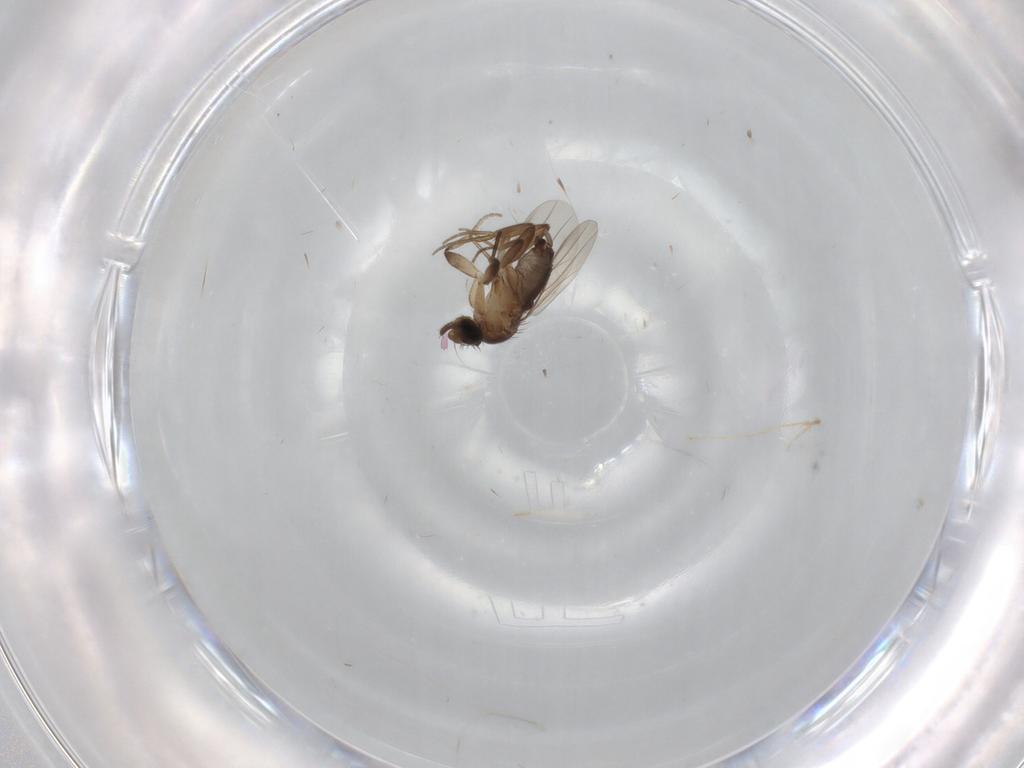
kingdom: Animalia
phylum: Arthropoda
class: Insecta
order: Diptera
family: Phoridae
